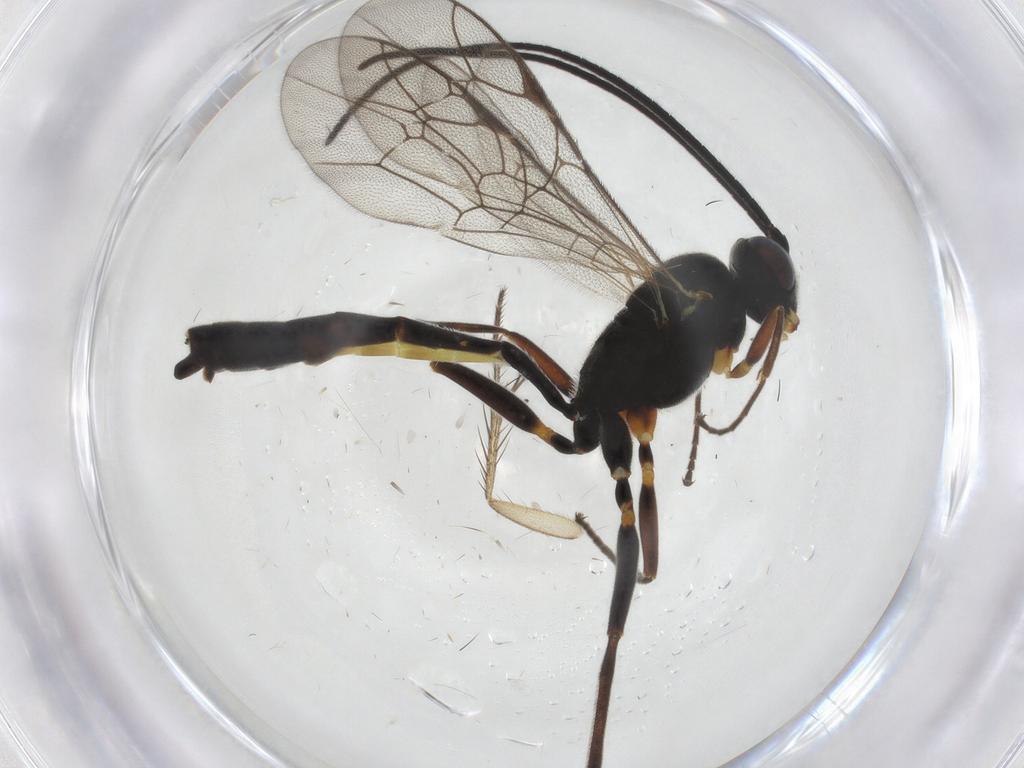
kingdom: Animalia
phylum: Arthropoda
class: Insecta
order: Hymenoptera
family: Ichneumonidae
